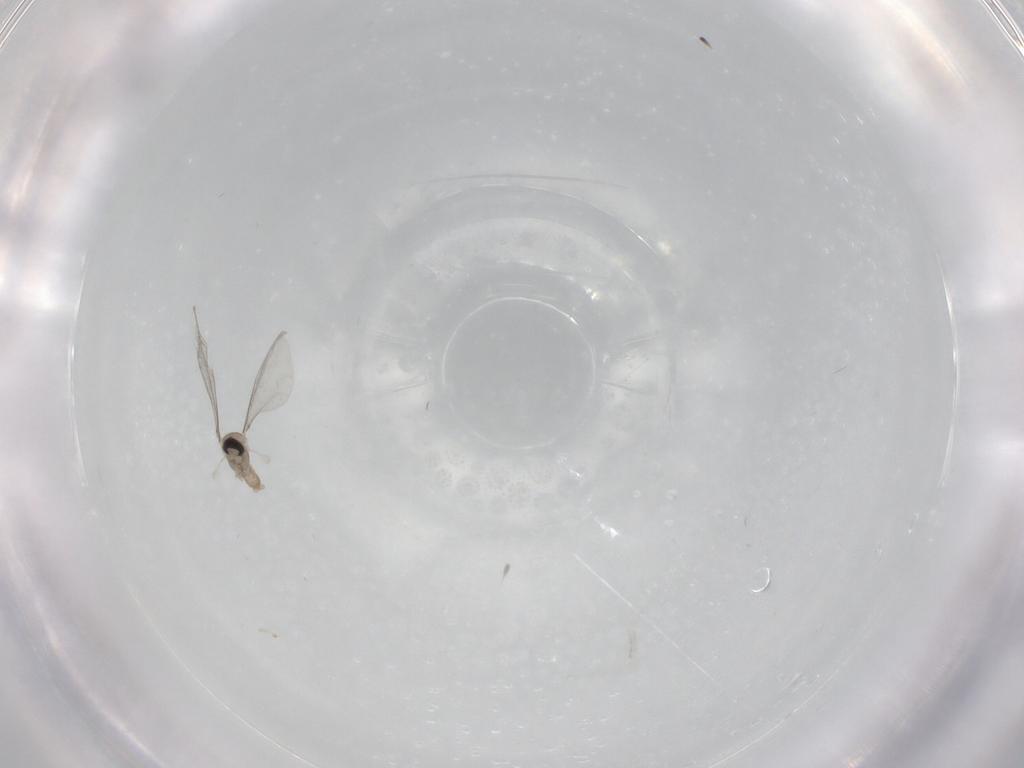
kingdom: Animalia
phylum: Arthropoda
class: Insecta
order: Diptera
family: Cecidomyiidae
